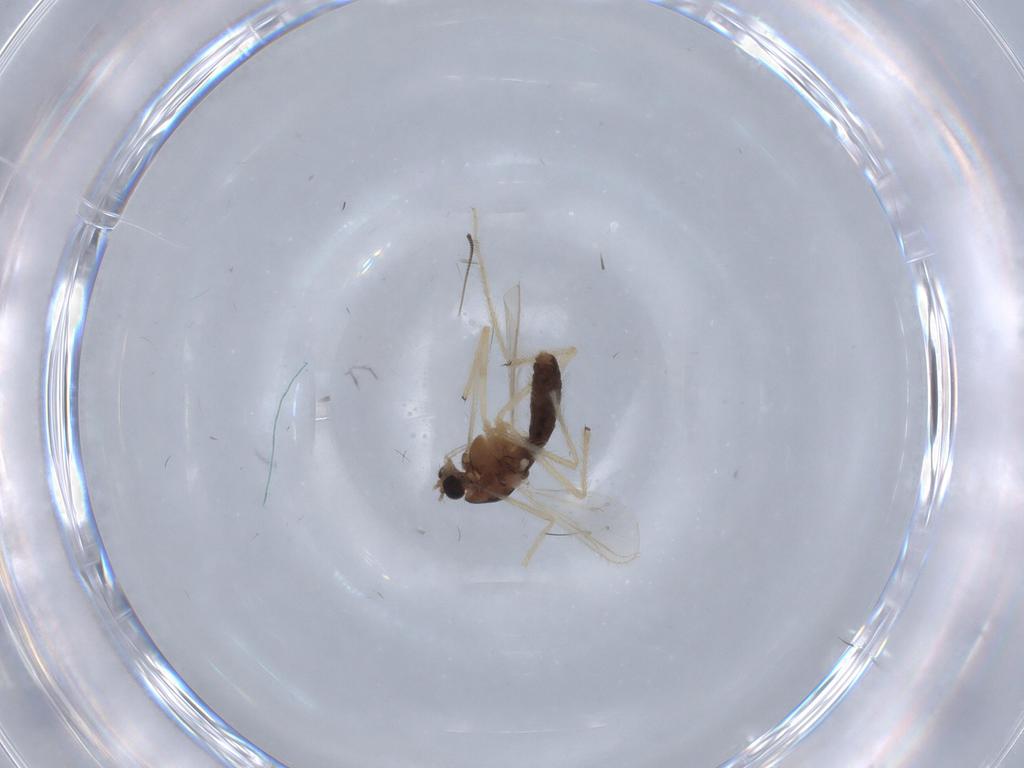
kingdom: Animalia
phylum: Arthropoda
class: Insecta
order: Diptera
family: Chironomidae
